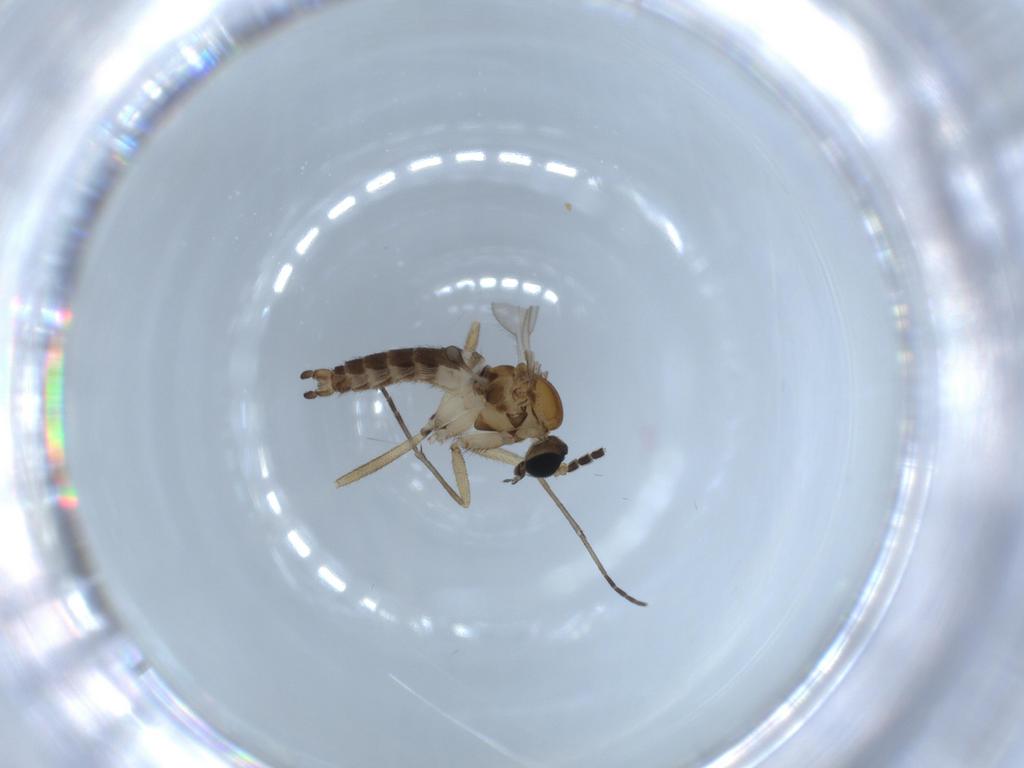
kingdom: Animalia
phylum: Arthropoda
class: Insecta
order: Diptera
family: Sciaridae
